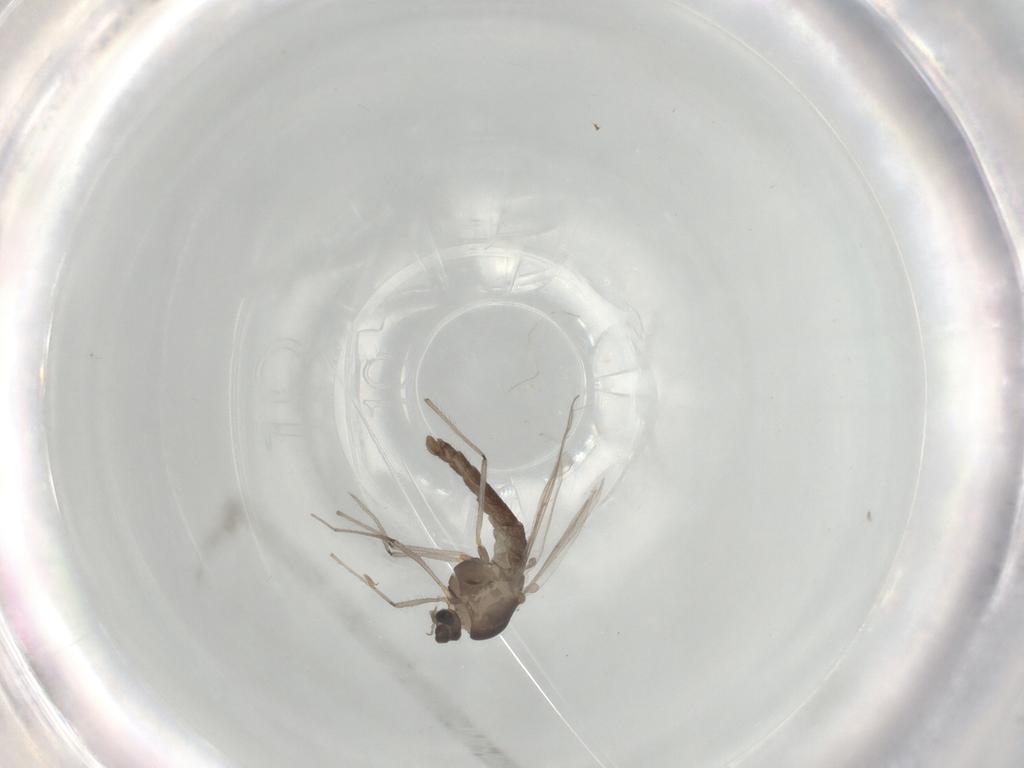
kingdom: Animalia
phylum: Arthropoda
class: Insecta
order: Diptera
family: Chironomidae
